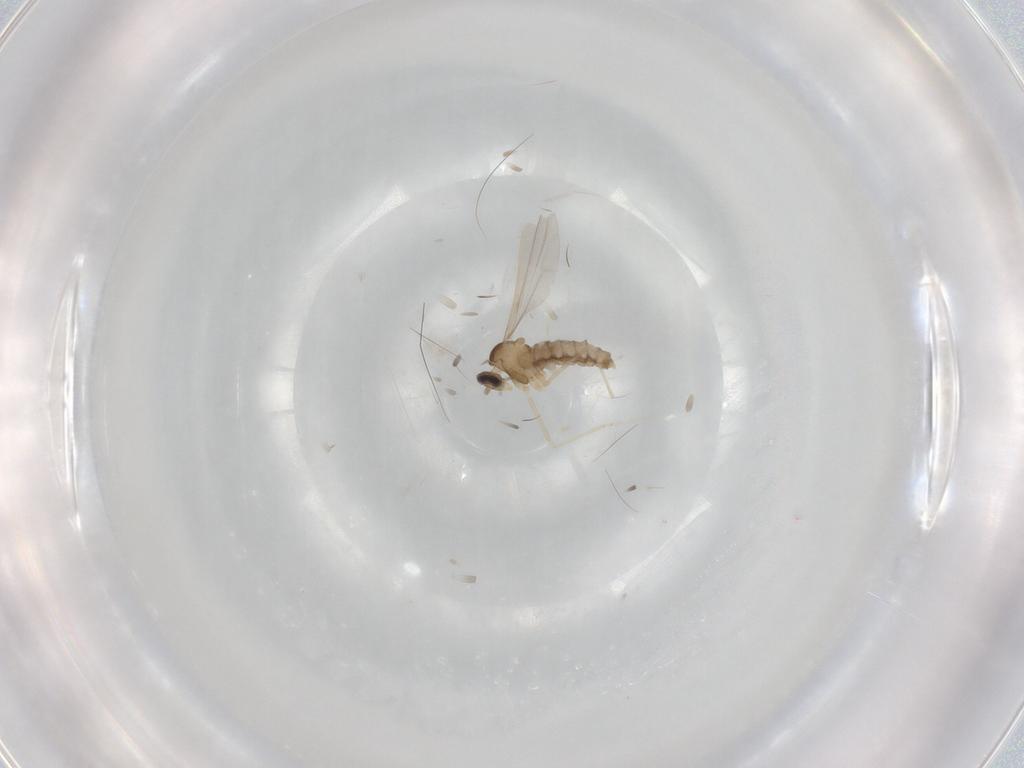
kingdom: Animalia
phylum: Arthropoda
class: Insecta
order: Diptera
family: Cecidomyiidae
